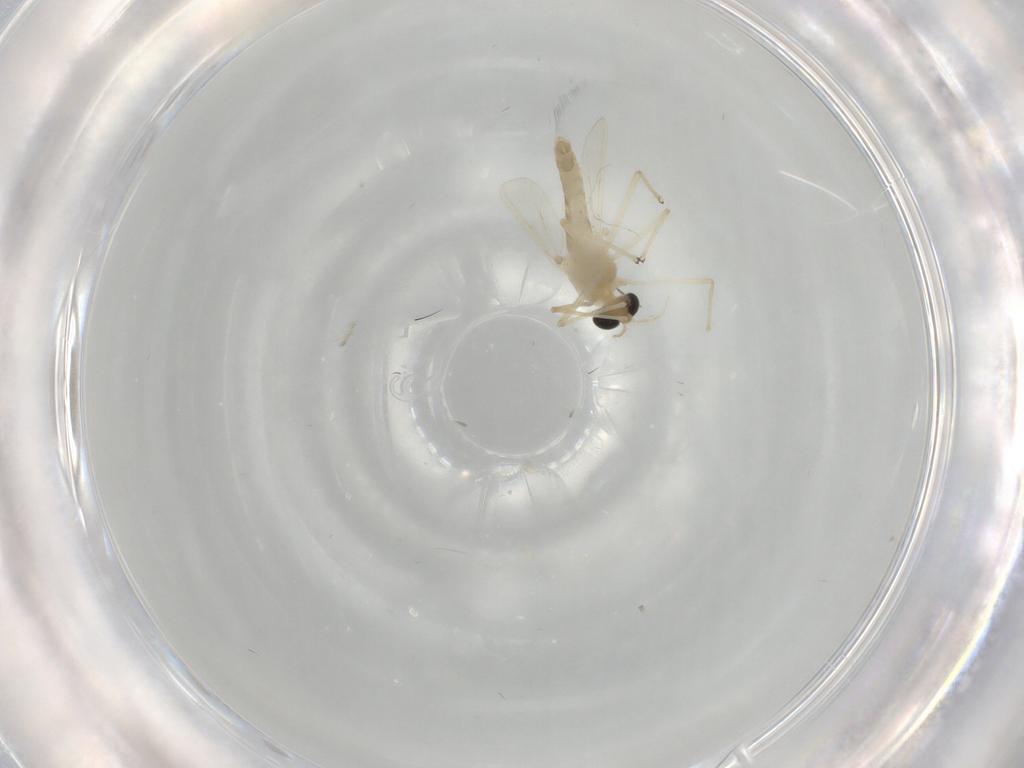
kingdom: Animalia
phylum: Arthropoda
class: Insecta
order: Diptera
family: Chironomidae
